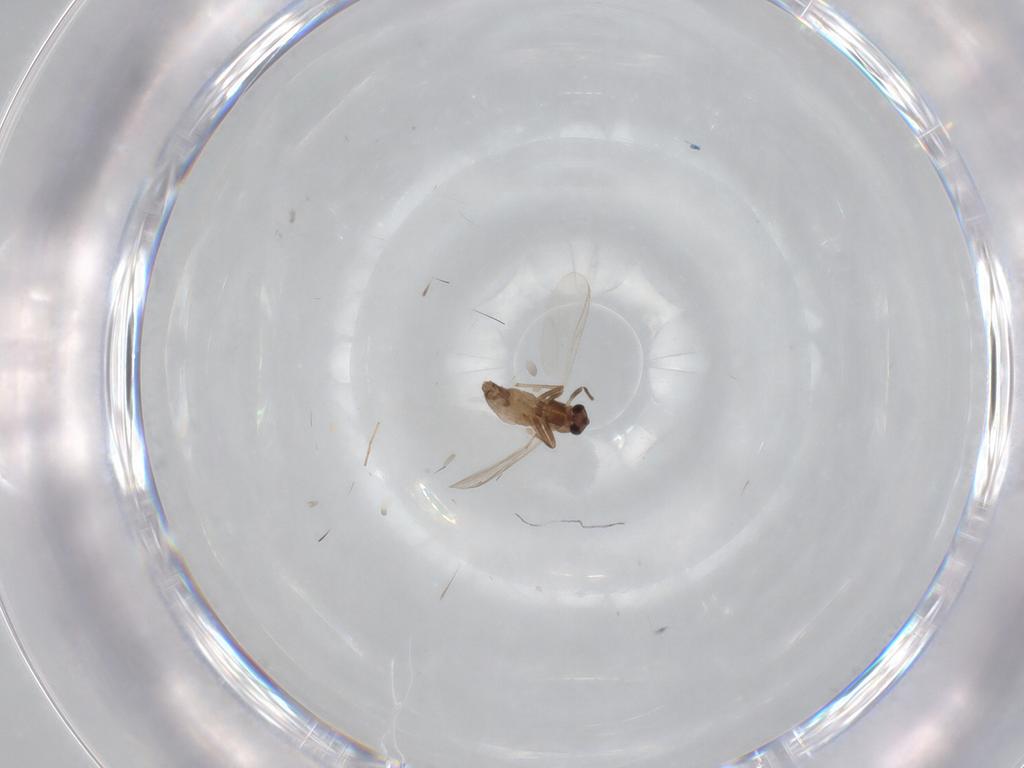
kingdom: Animalia
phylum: Arthropoda
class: Insecta
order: Diptera
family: Chironomidae
